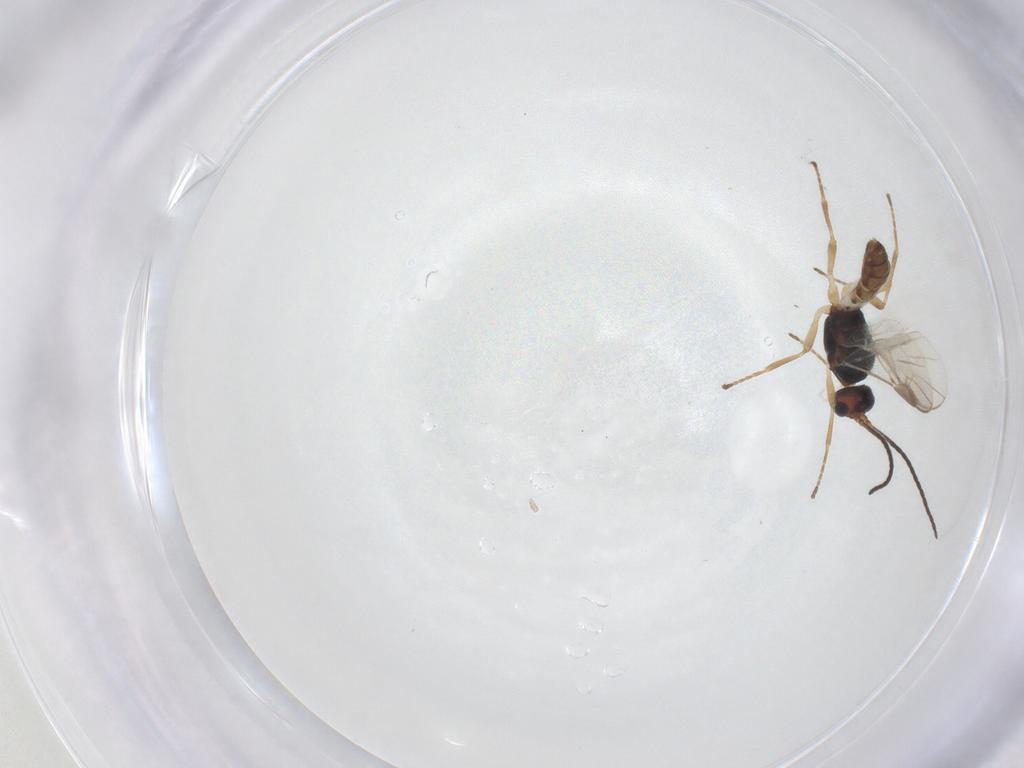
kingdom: Animalia
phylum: Arthropoda
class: Insecta
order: Hymenoptera
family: Braconidae
